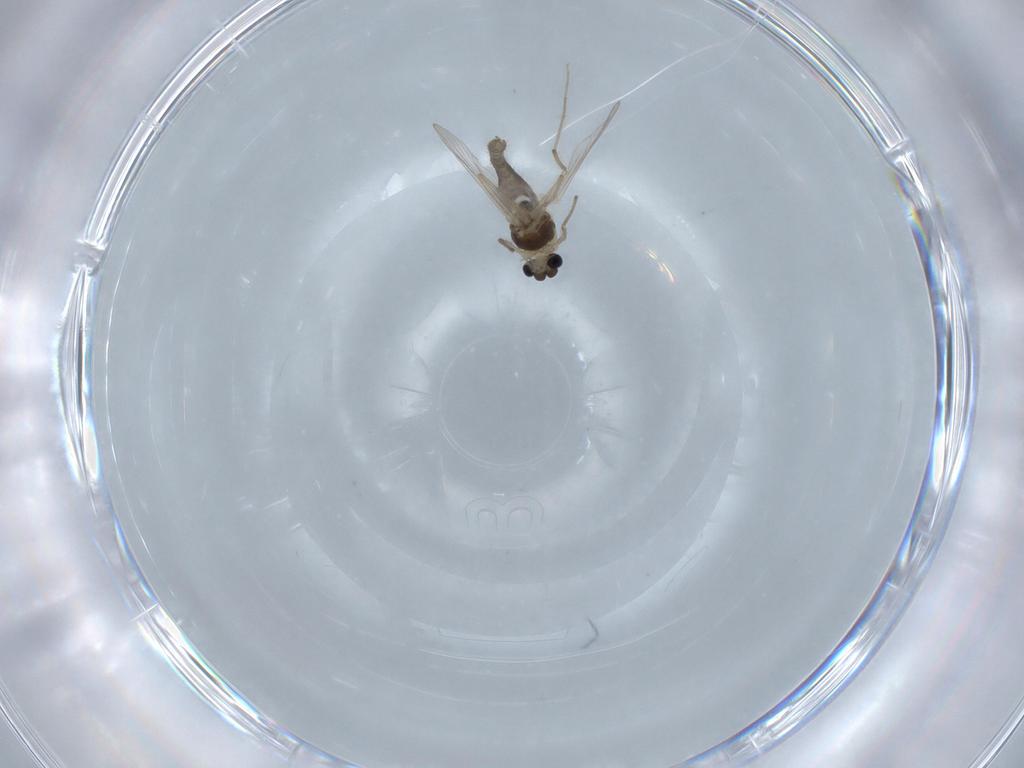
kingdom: Animalia
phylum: Arthropoda
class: Insecta
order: Diptera
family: Chironomidae
